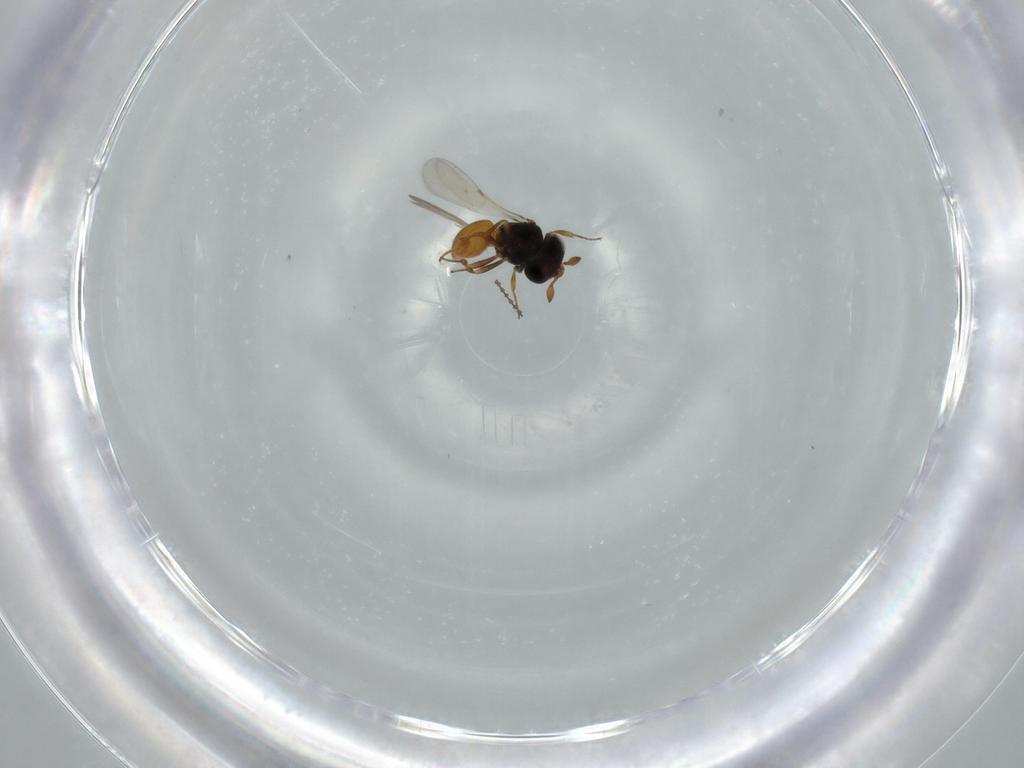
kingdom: Animalia
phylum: Arthropoda
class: Insecta
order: Hymenoptera
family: Scelionidae
